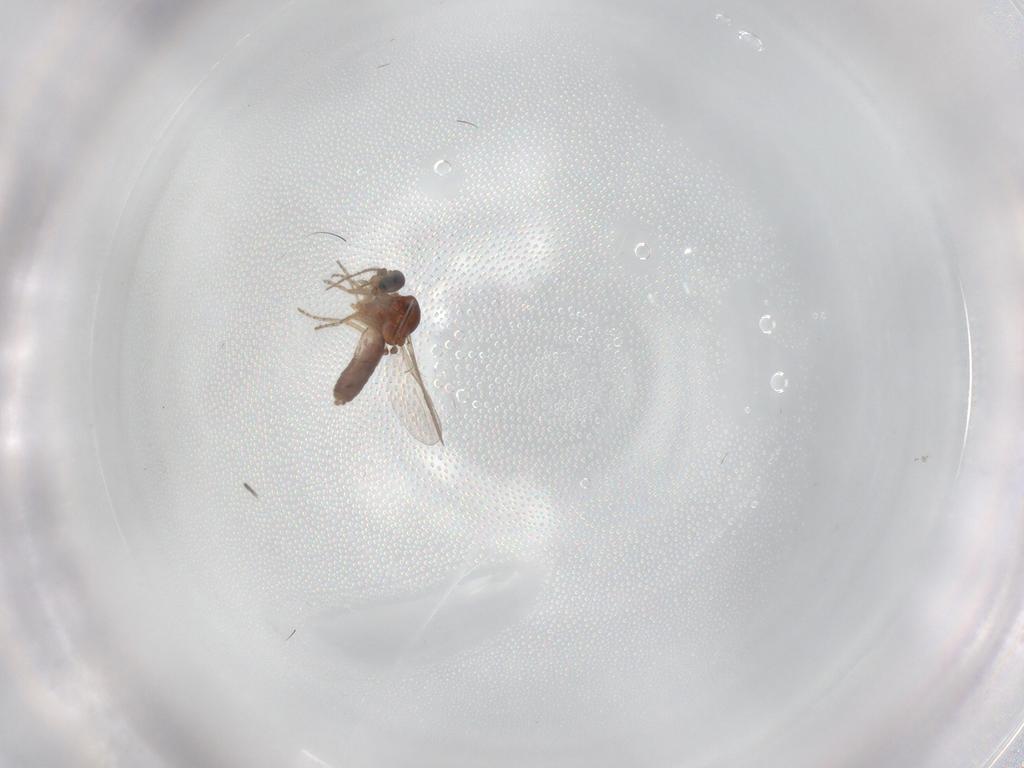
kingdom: Animalia
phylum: Arthropoda
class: Insecta
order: Diptera
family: Ceratopogonidae
